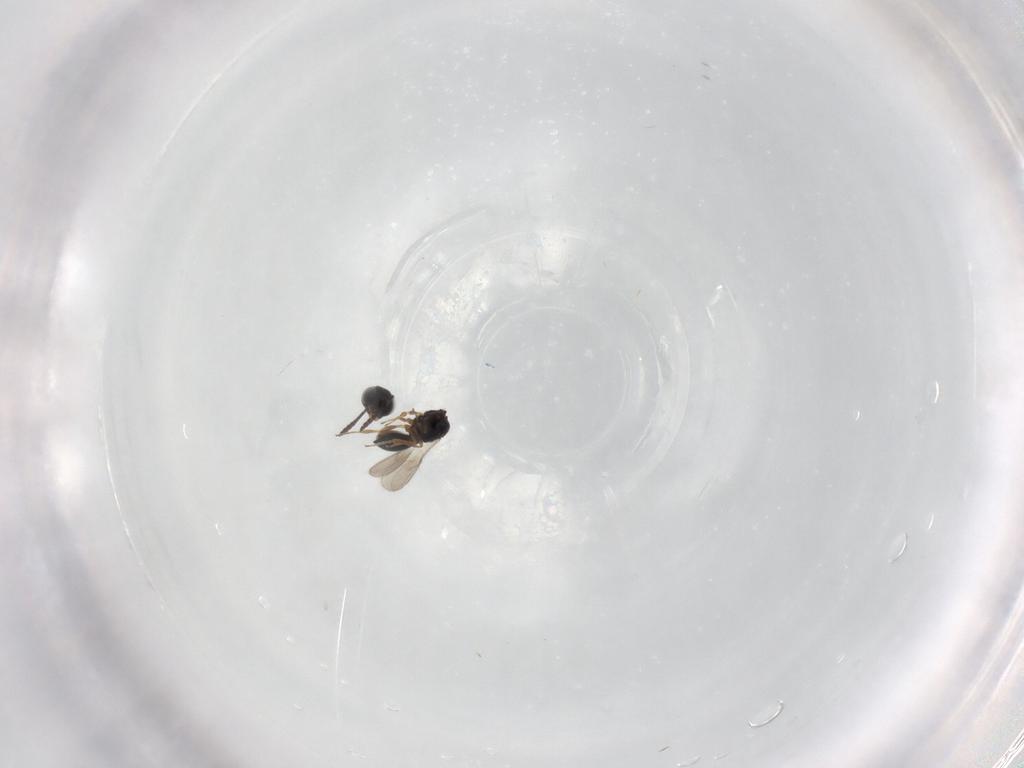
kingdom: Animalia
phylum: Arthropoda
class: Insecta
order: Hymenoptera
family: Scelionidae
